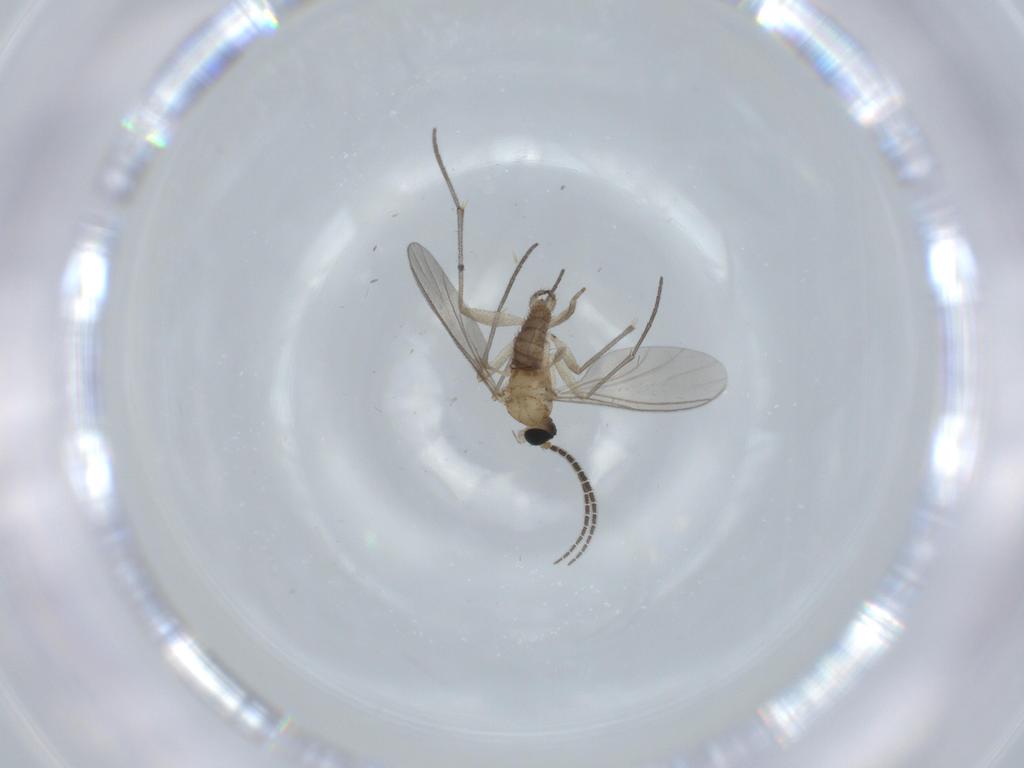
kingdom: Animalia
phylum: Arthropoda
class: Insecta
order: Diptera
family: Sciaridae
